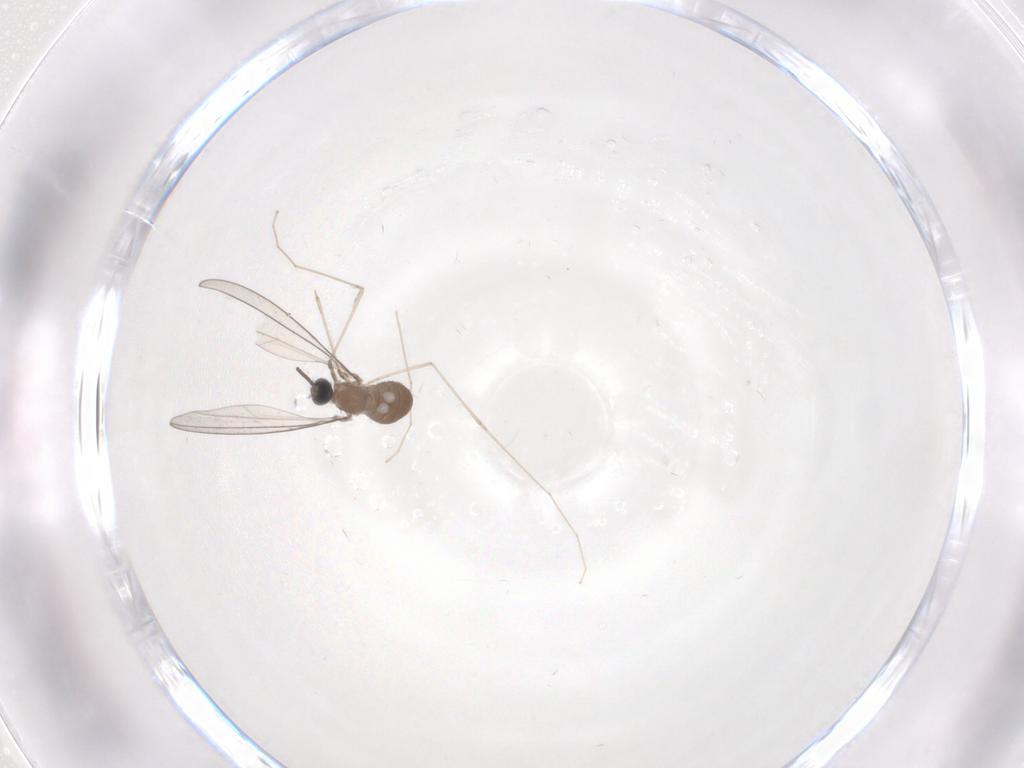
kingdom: Animalia
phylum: Arthropoda
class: Insecta
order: Diptera
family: Cecidomyiidae
